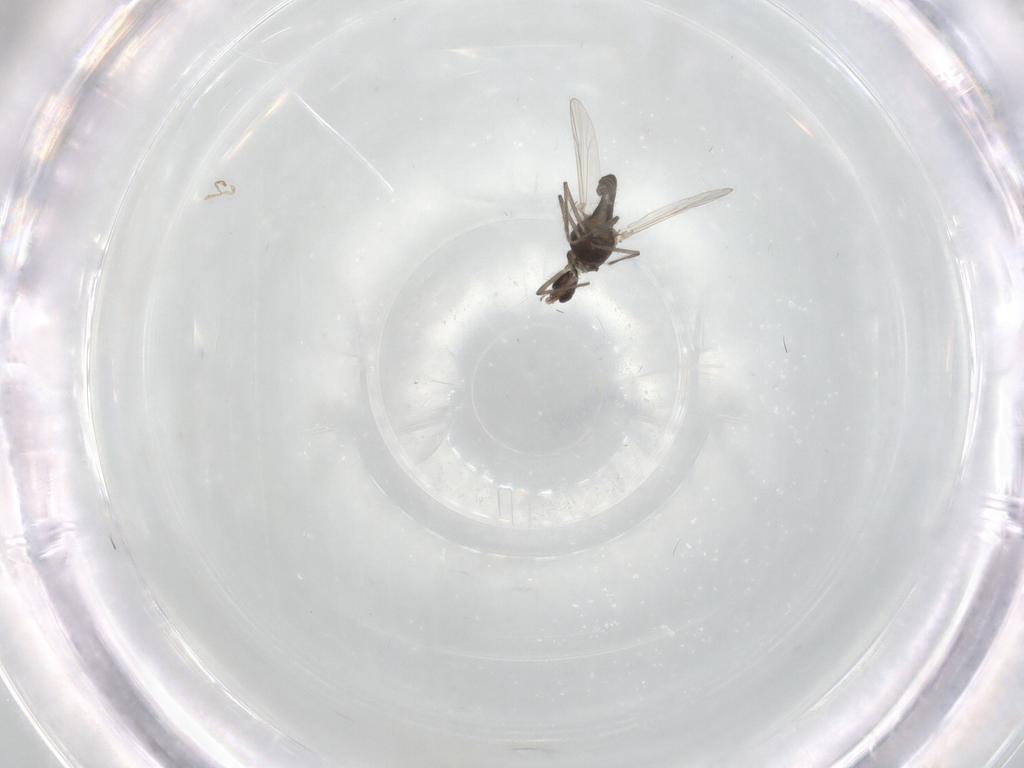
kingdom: Animalia
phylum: Arthropoda
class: Insecta
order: Diptera
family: Chironomidae
